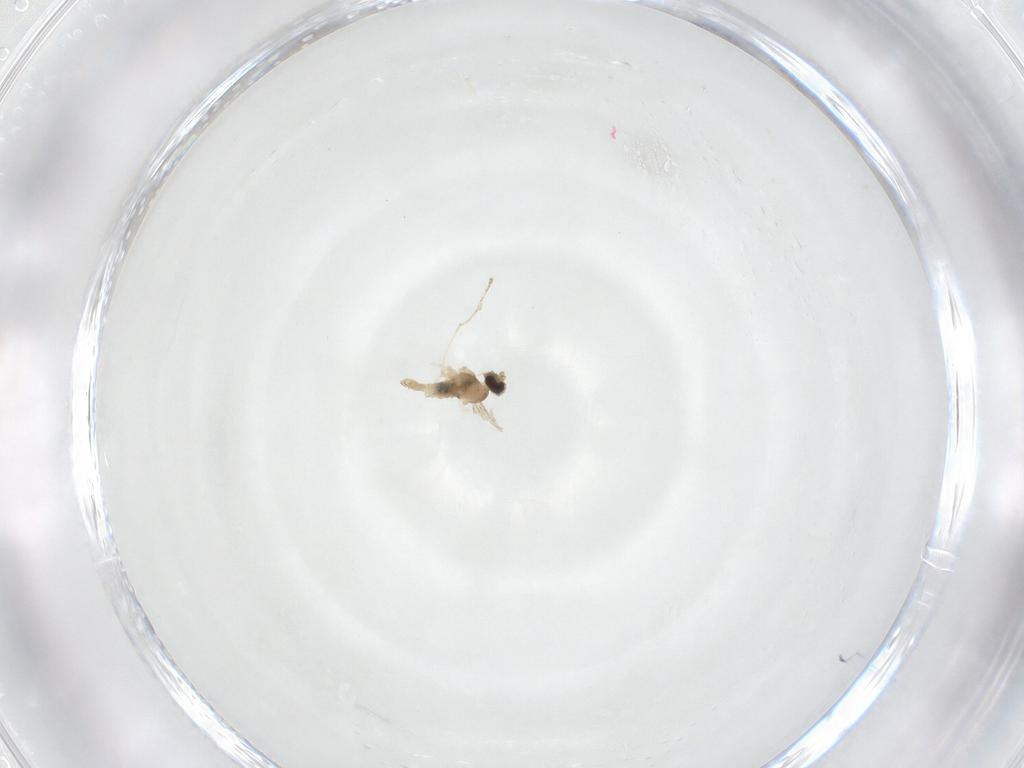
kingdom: Animalia
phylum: Arthropoda
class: Insecta
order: Diptera
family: Cecidomyiidae
